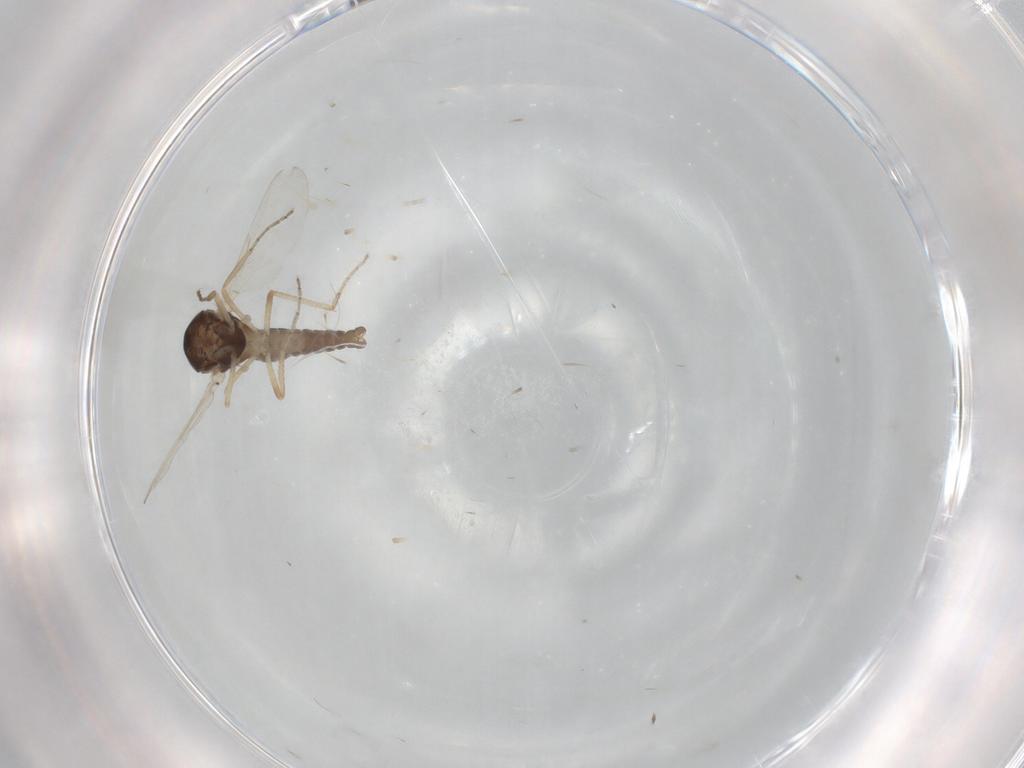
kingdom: Animalia
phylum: Arthropoda
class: Insecta
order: Diptera
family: Ceratopogonidae
